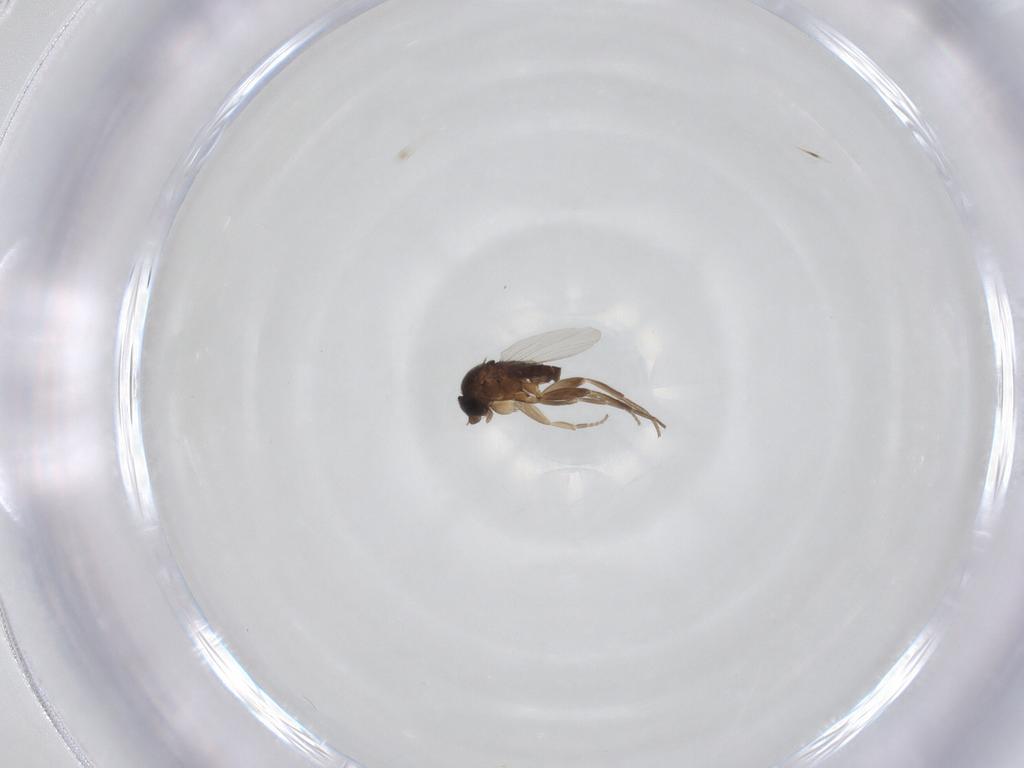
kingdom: Animalia
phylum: Arthropoda
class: Insecta
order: Diptera
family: Phoridae
